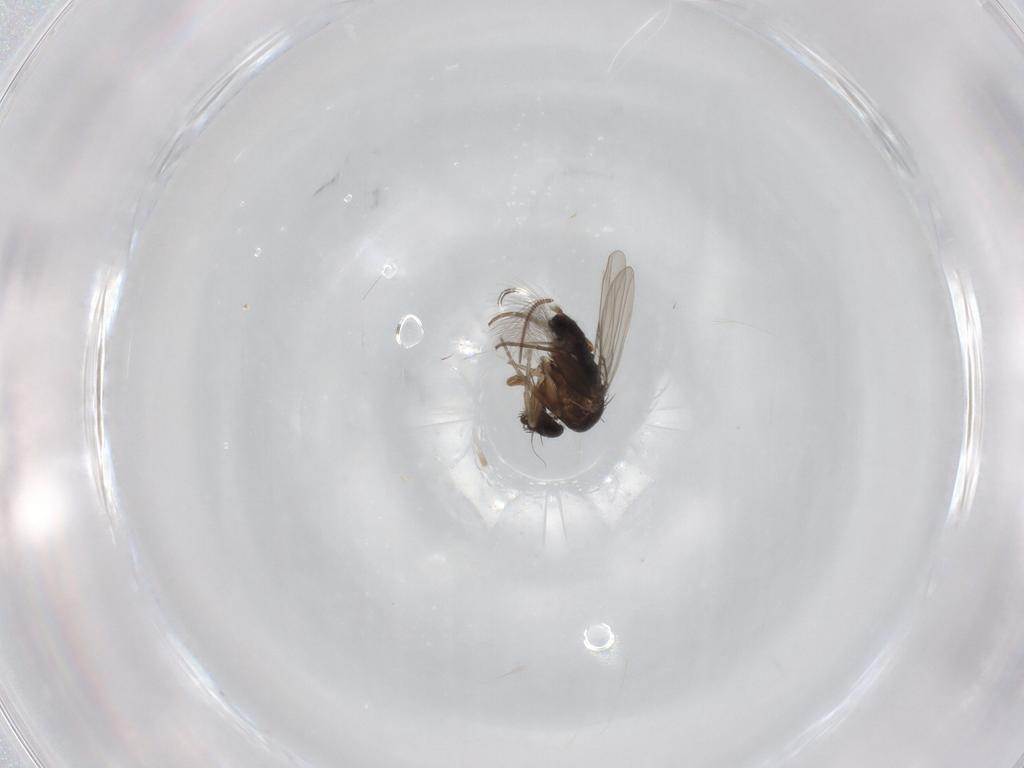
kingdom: Animalia
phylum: Arthropoda
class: Insecta
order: Diptera
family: Phoridae
